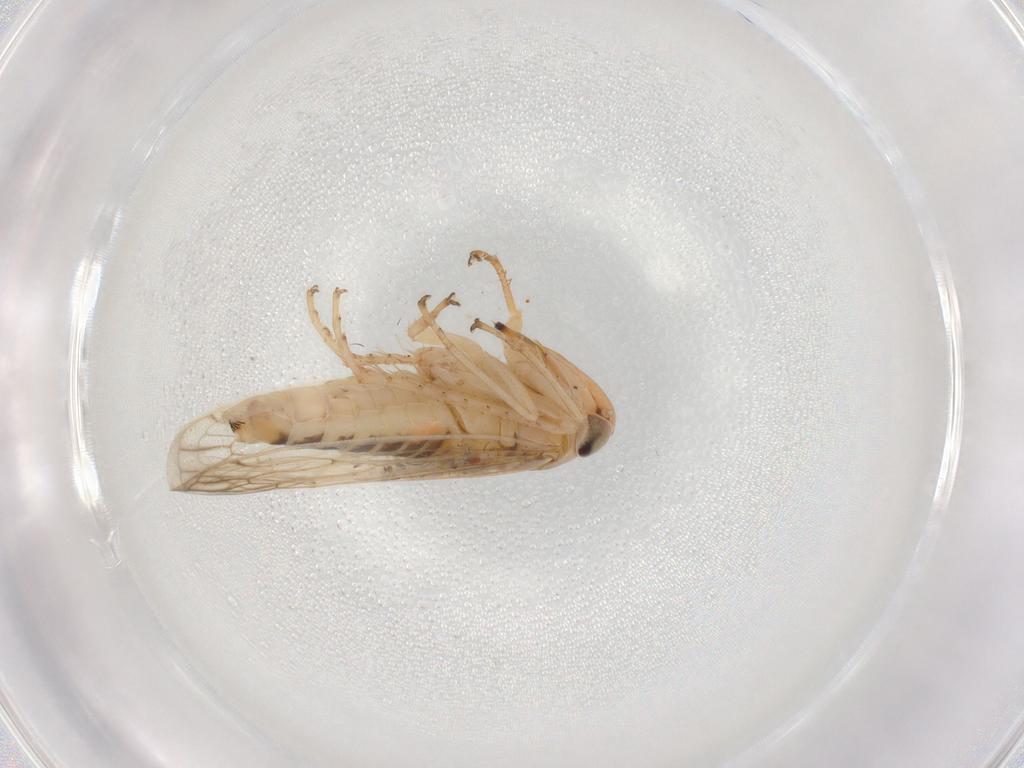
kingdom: Animalia
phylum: Arthropoda
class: Insecta
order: Hemiptera
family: Cicadellidae
